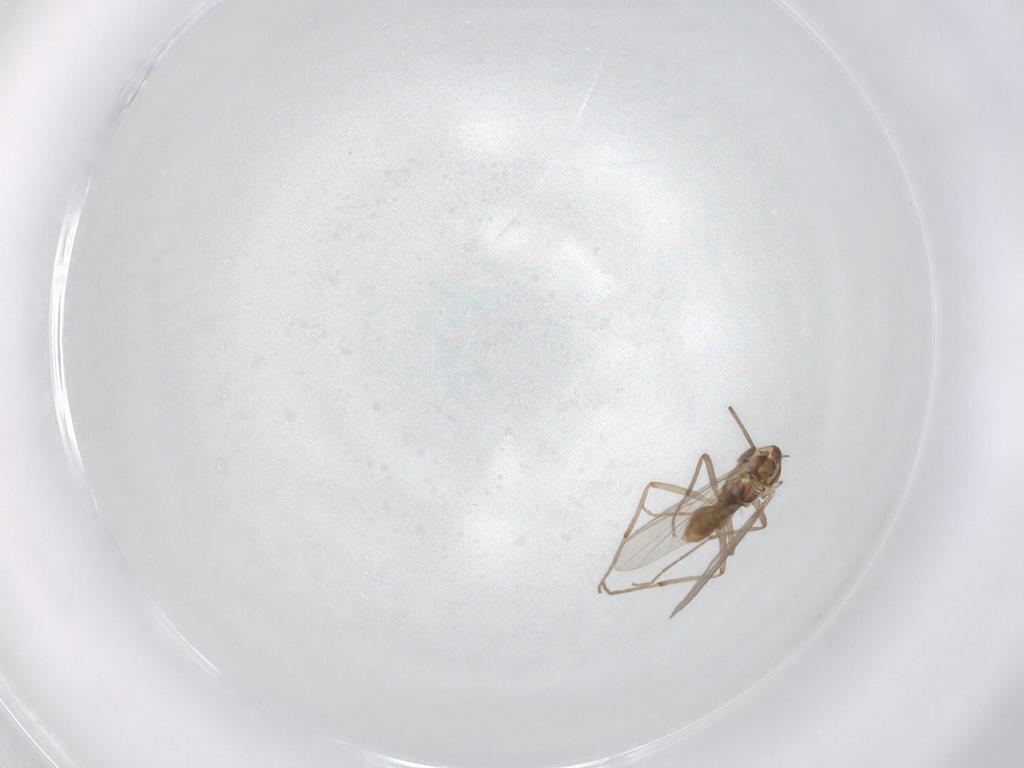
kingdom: Animalia
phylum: Arthropoda
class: Insecta
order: Diptera
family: Chironomidae
